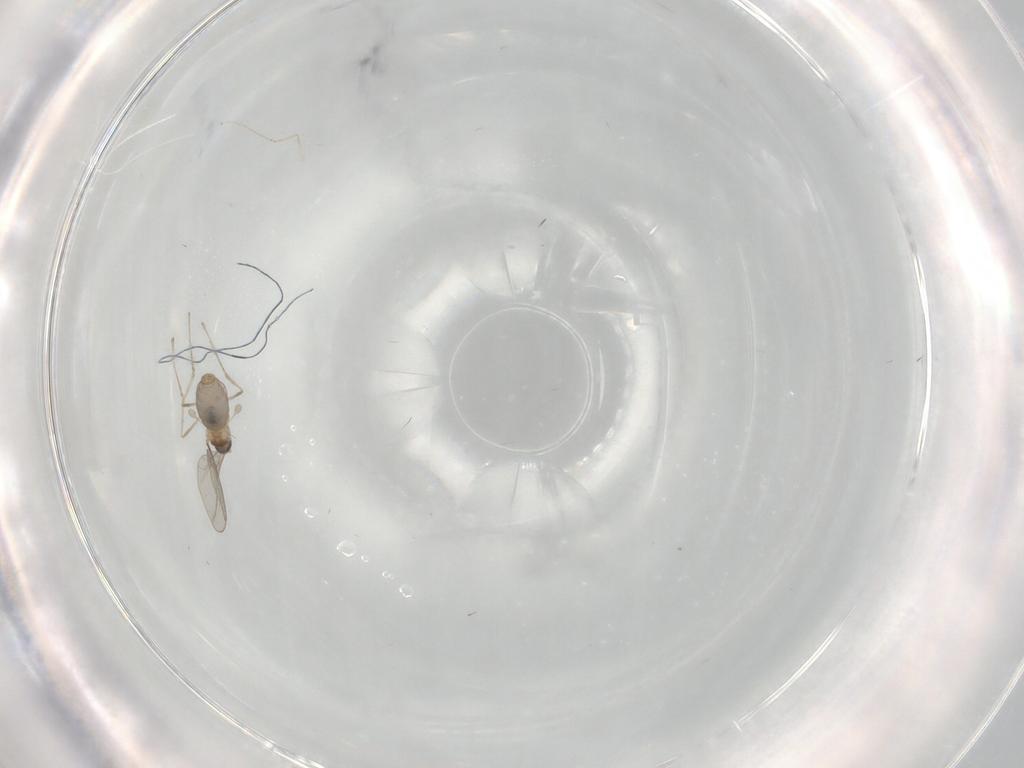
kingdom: Animalia
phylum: Arthropoda
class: Insecta
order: Diptera
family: Cecidomyiidae
